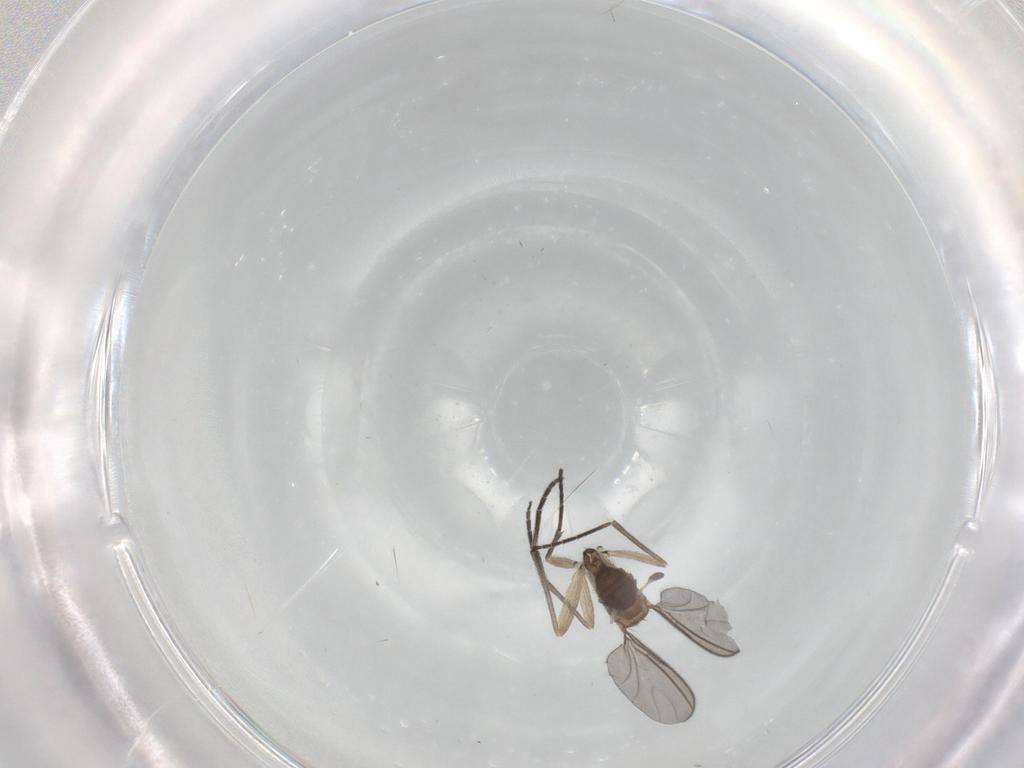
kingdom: Animalia
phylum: Arthropoda
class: Insecta
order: Diptera
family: Sciaridae
